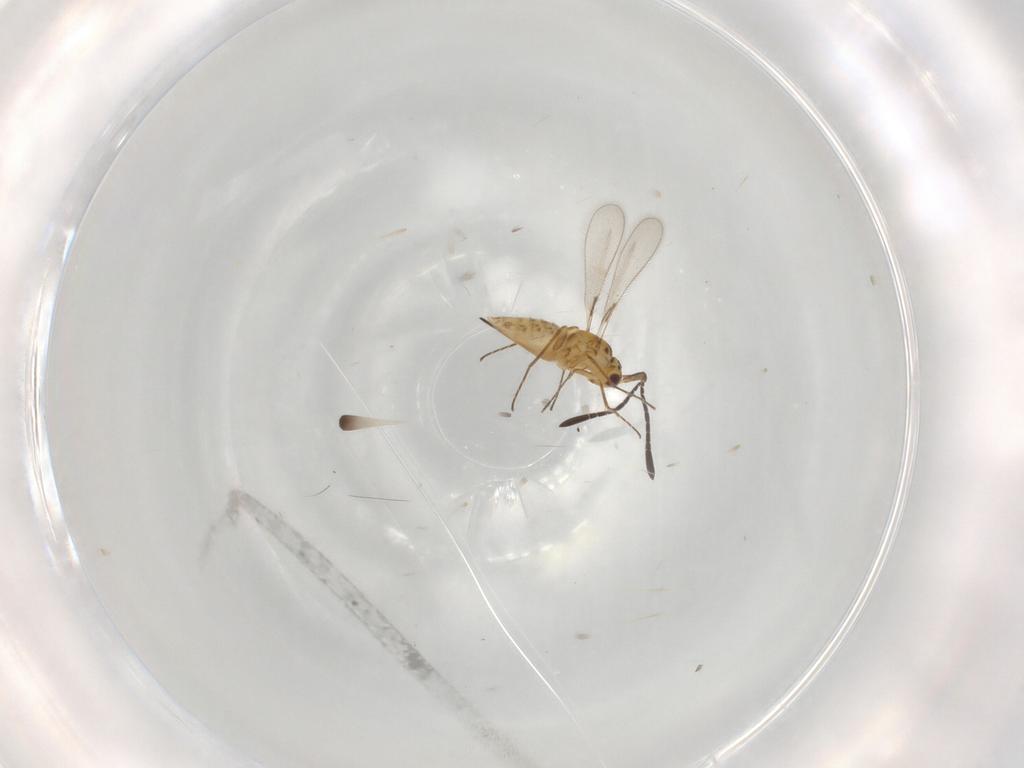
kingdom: Animalia
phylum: Arthropoda
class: Insecta
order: Hymenoptera
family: Mymaridae
